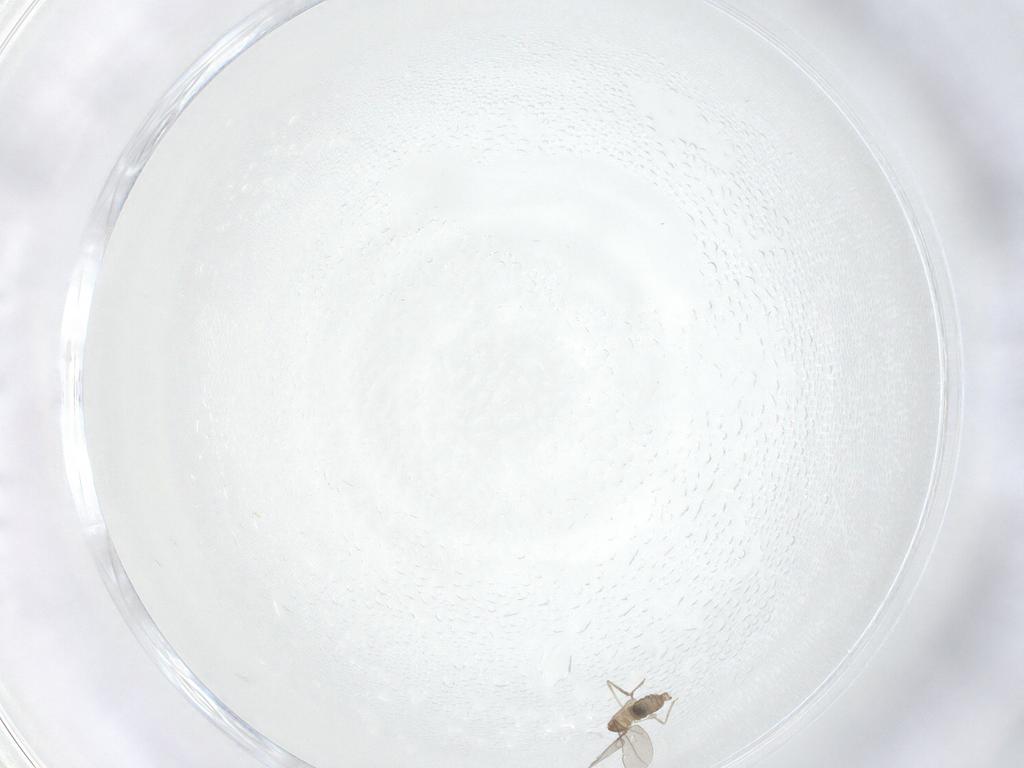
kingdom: Animalia
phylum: Arthropoda
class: Insecta
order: Diptera
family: Cecidomyiidae
